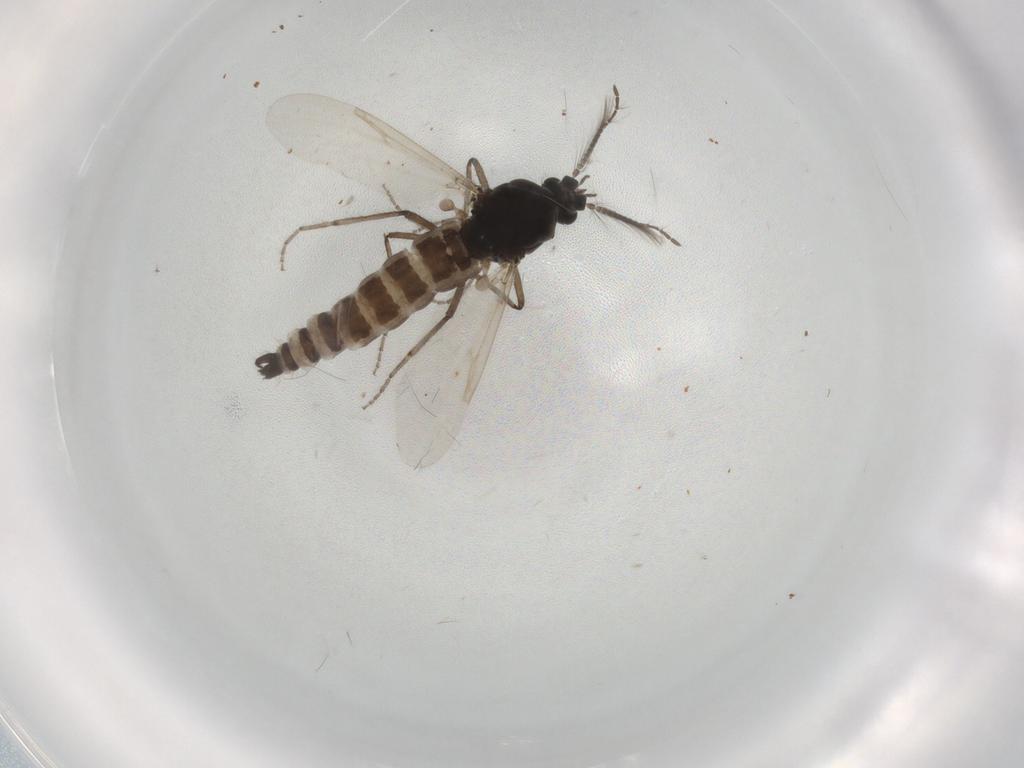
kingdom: Animalia
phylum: Arthropoda
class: Insecta
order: Diptera
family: Ceratopogonidae
